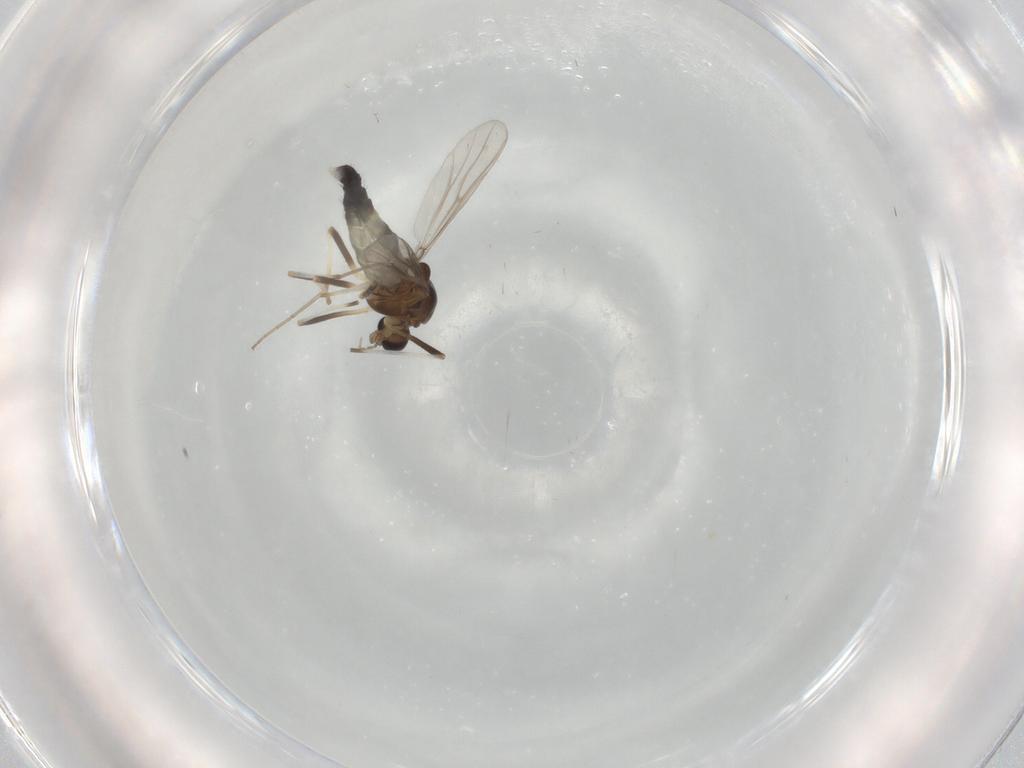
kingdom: Animalia
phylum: Arthropoda
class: Insecta
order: Diptera
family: Chironomidae
